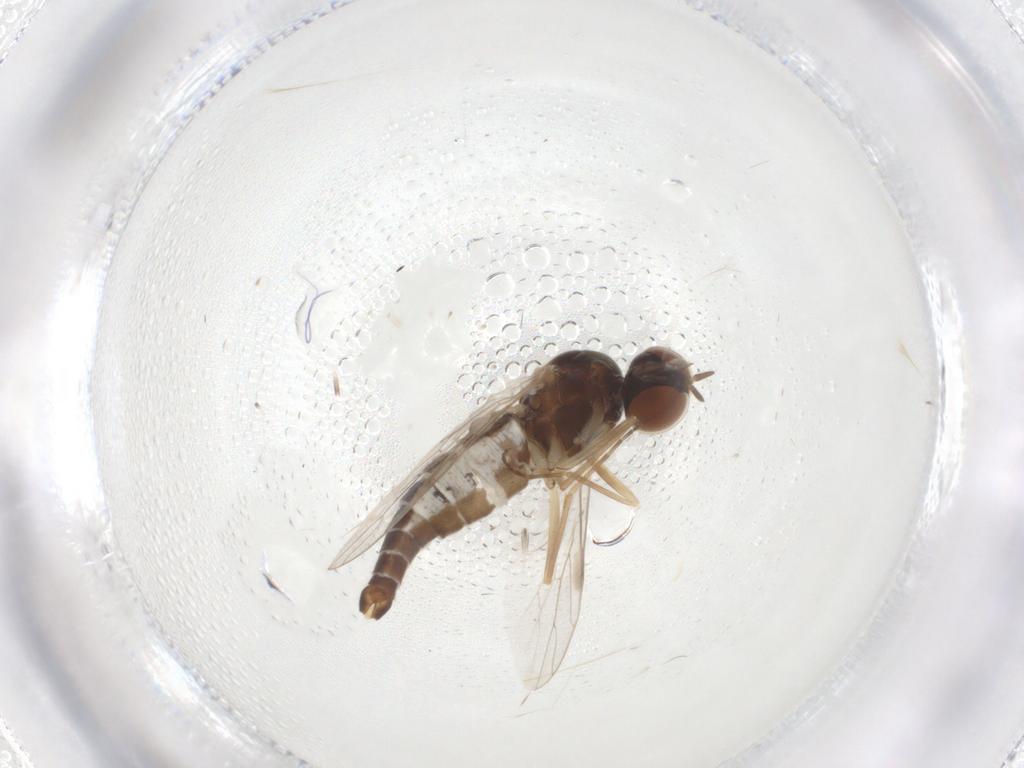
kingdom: Animalia
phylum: Arthropoda
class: Insecta
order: Diptera
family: Scenopinidae
